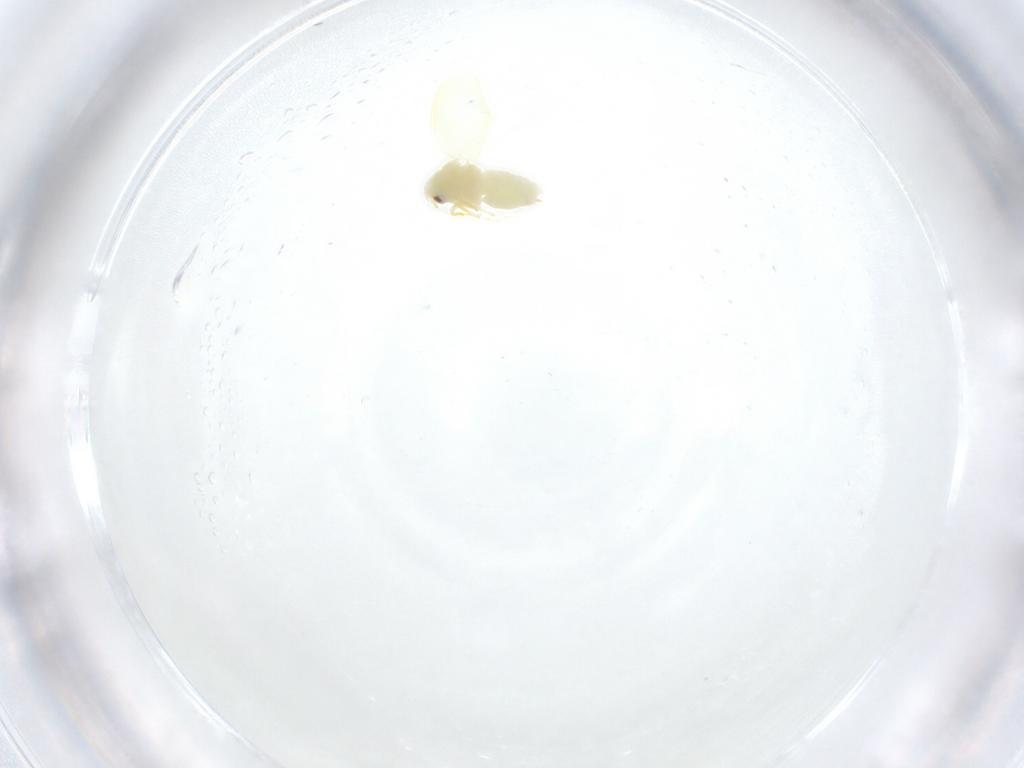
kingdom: Animalia
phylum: Arthropoda
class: Insecta
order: Hemiptera
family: Aleyrodidae
